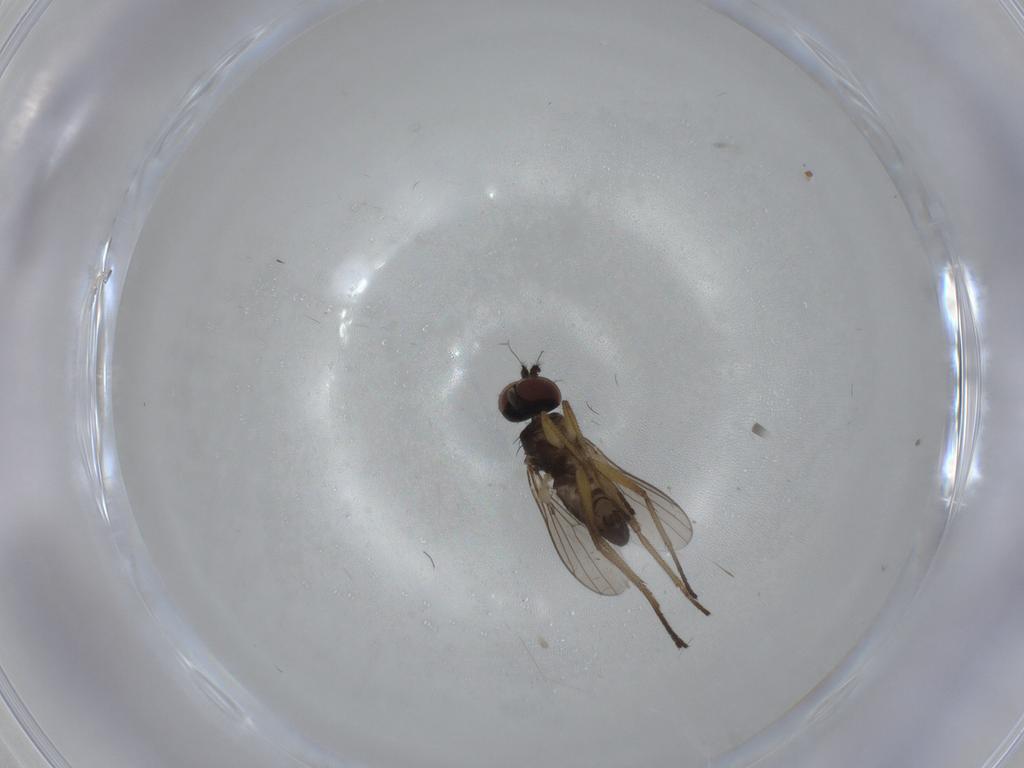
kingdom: Animalia
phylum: Arthropoda
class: Insecta
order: Diptera
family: Dolichopodidae
